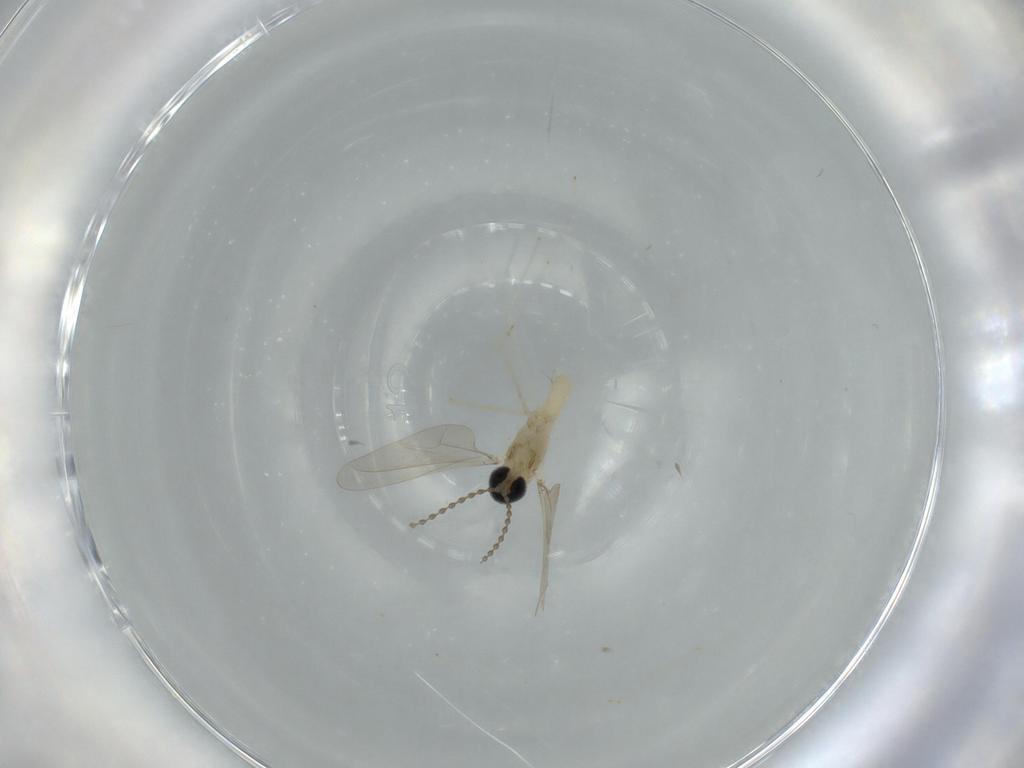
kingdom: Animalia
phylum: Arthropoda
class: Insecta
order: Diptera
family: Cecidomyiidae
